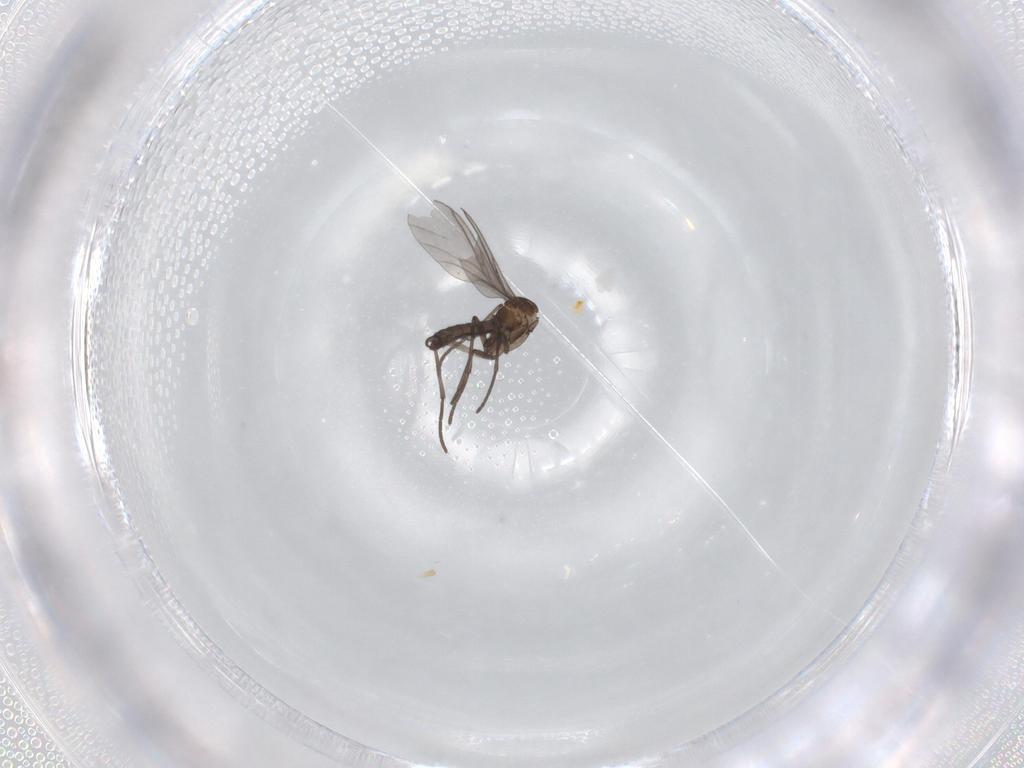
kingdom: Animalia
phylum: Arthropoda
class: Insecta
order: Diptera
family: Sciaridae
